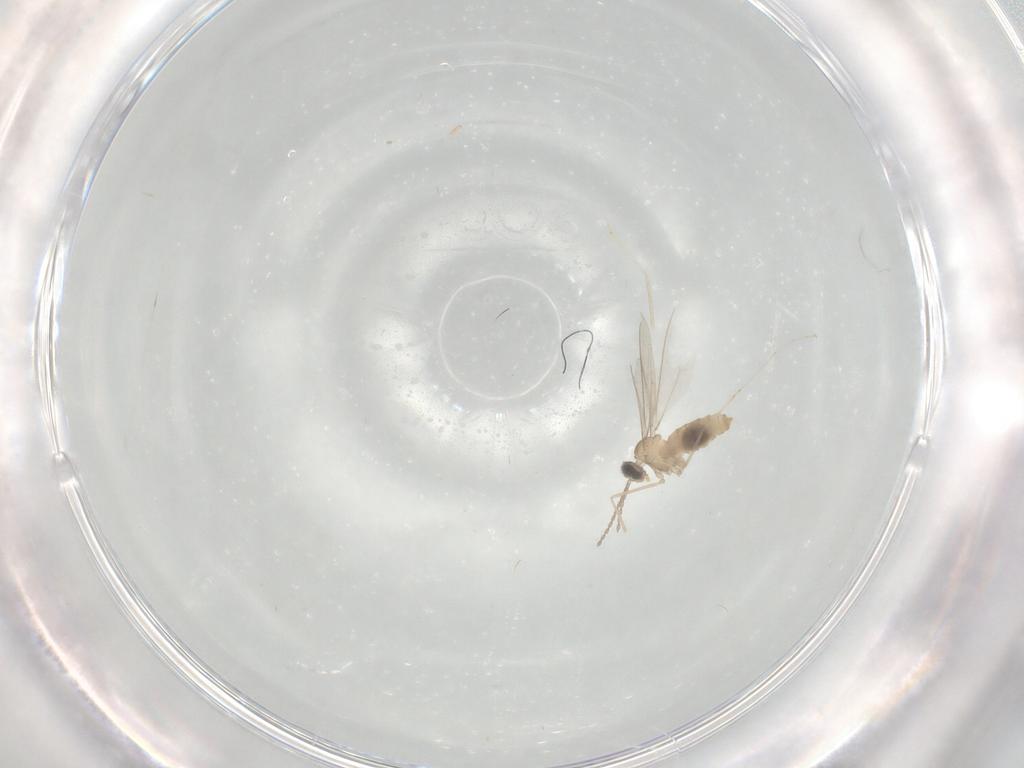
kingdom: Animalia
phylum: Arthropoda
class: Insecta
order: Diptera
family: Cecidomyiidae
